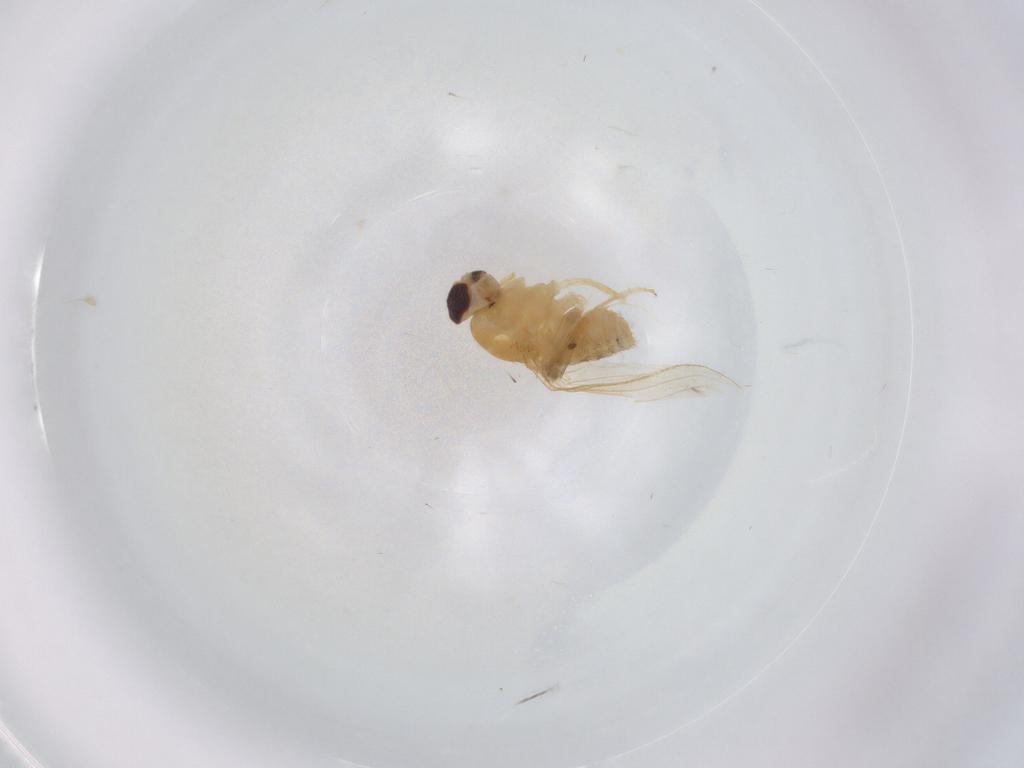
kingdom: Animalia
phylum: Arthropoda
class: Insecta
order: Diptera
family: Chyromyidae
